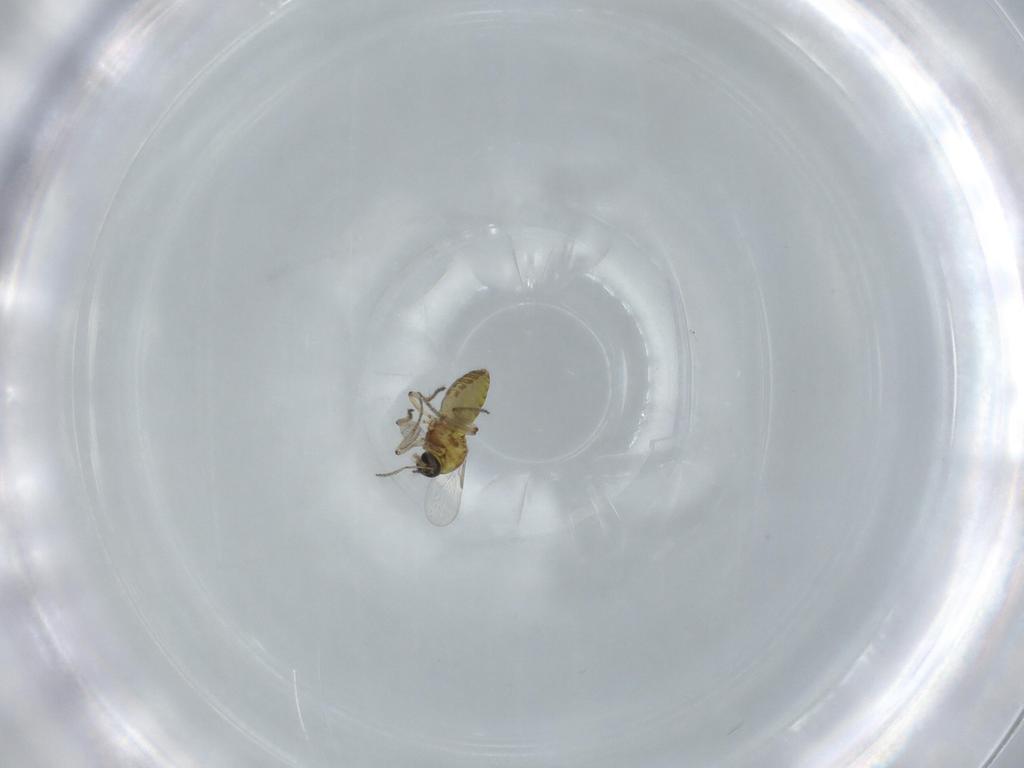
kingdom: Animalia
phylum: Arthropoda
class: Insecta
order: Diptera
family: Ceratopogonidae
